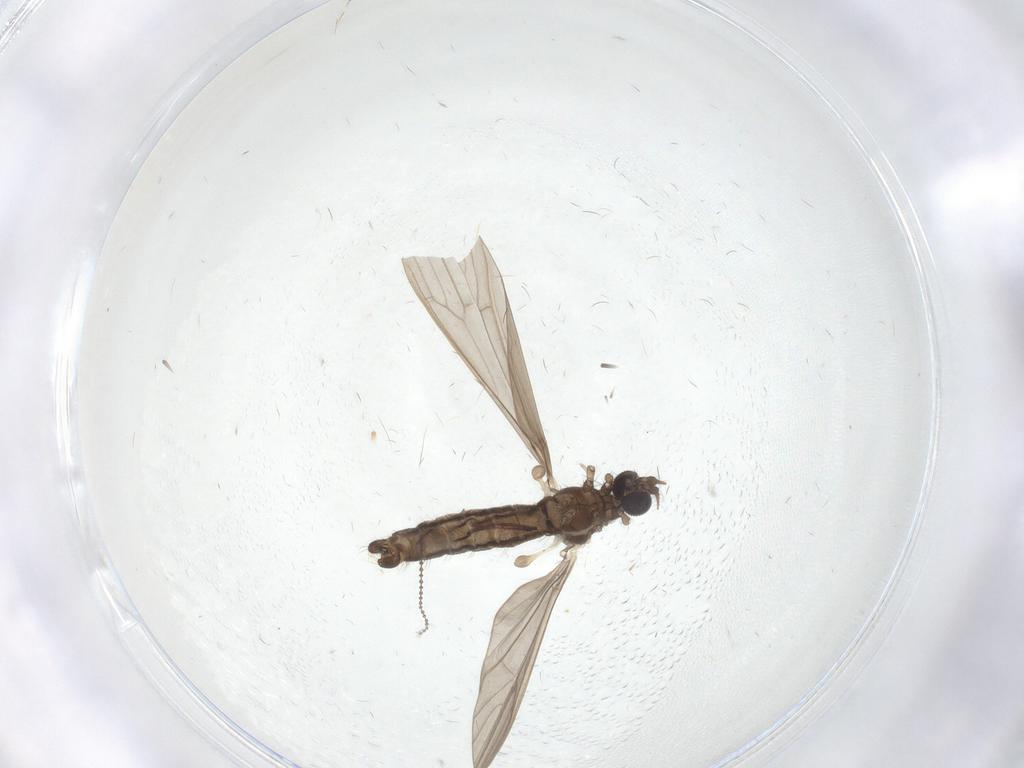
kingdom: Animalia
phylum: Arthropoda
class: Insecta
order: Diptera
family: Limoniidae
